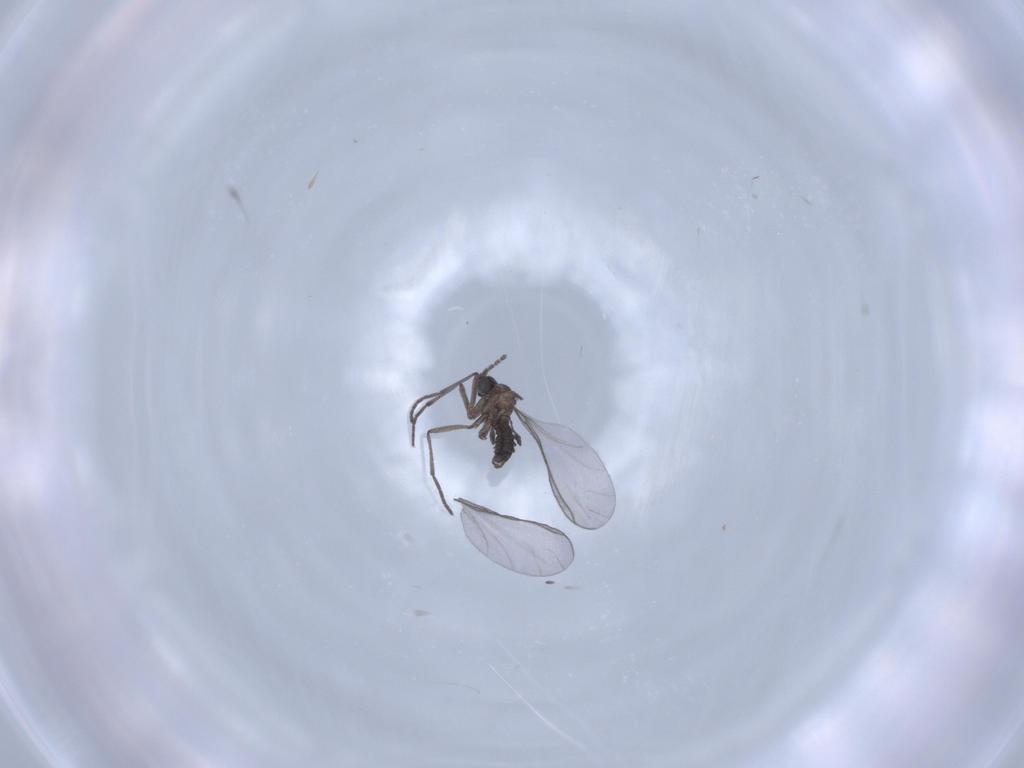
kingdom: Animalia
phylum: Arthropoda
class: Insecta
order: Diptera
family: Sciaridae
